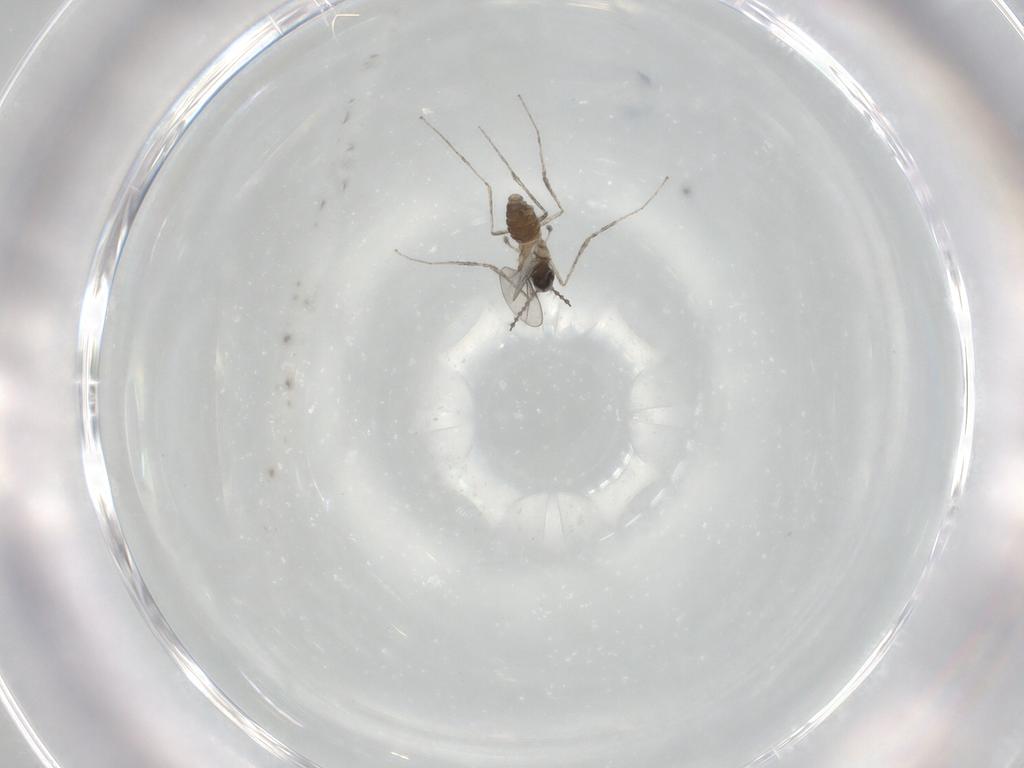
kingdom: Animalia
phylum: Arthropoda
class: Insecta
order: Diptera
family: Cecidomyiidae
